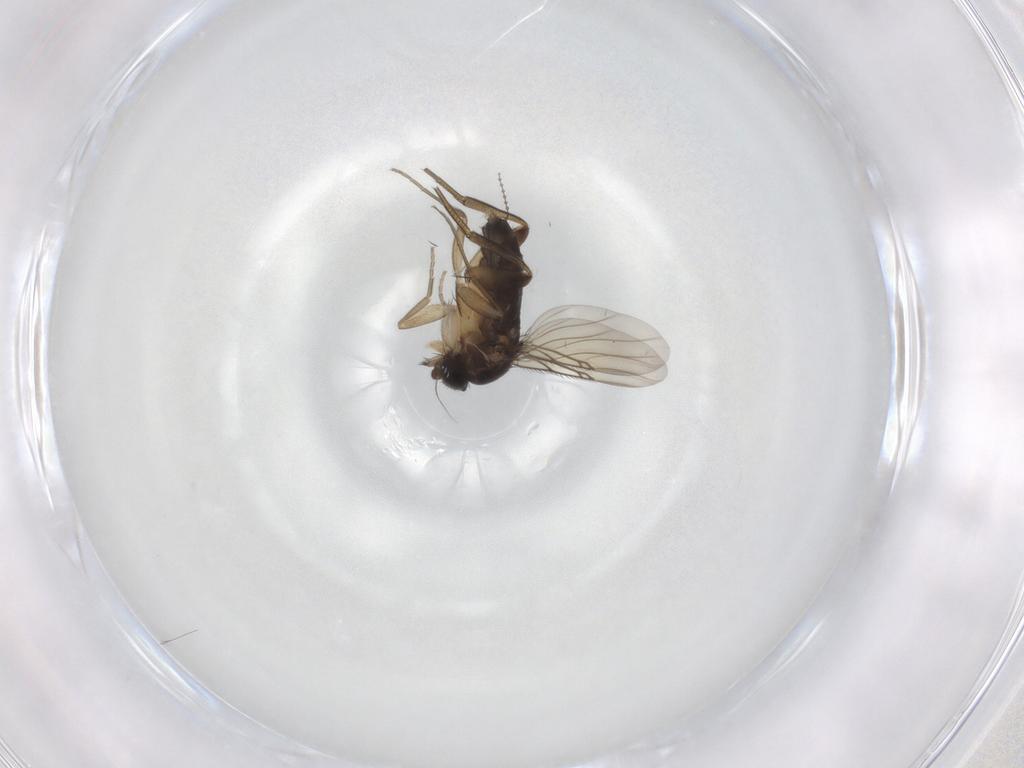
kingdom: Animalia
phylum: Arthropoda
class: Insecta
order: Diptera
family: Phoridae
